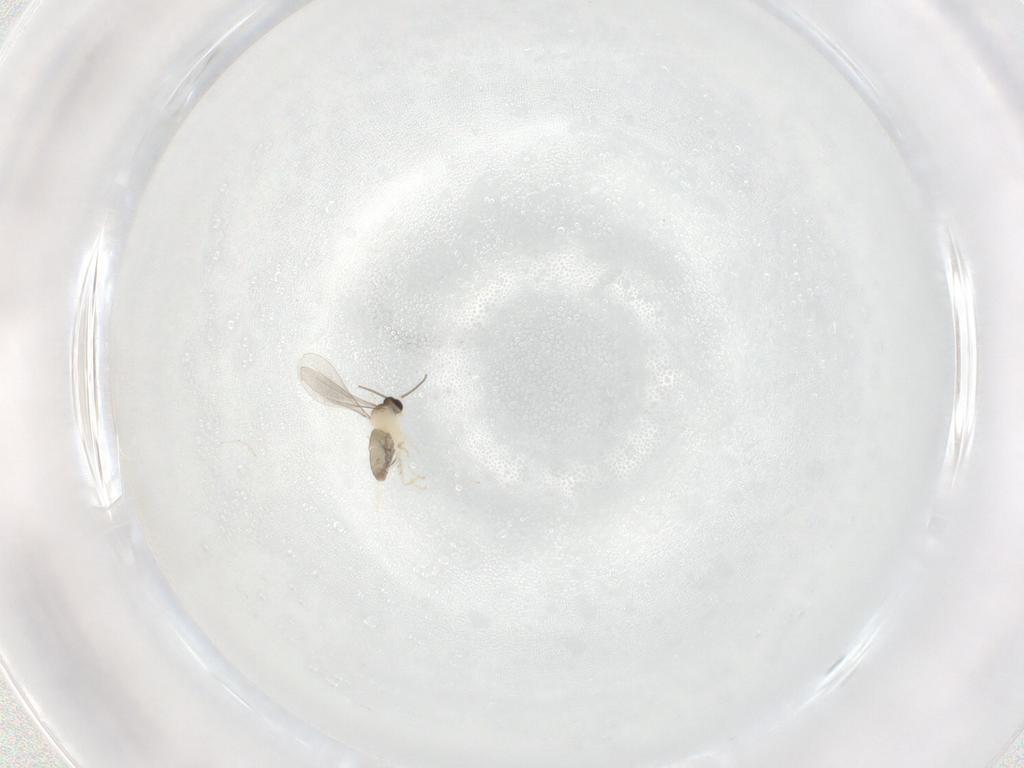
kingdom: Animalia
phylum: Arthropoda
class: Insecta
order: Diptera
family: Cecidomyiidae
